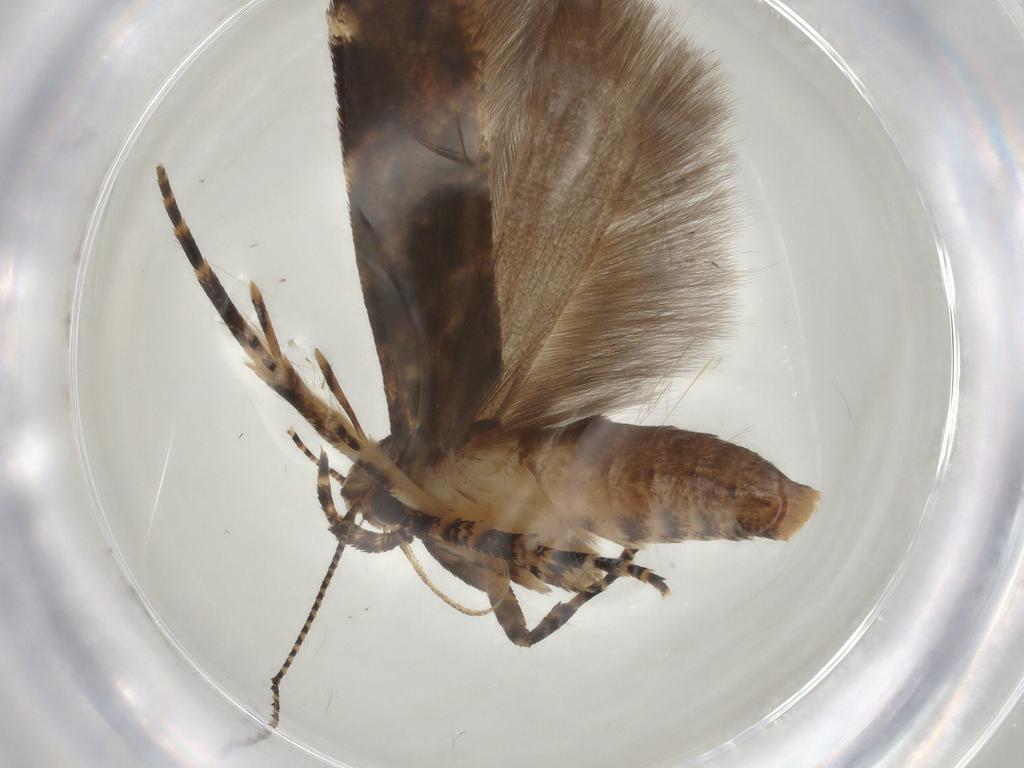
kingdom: Animalia
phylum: Arthropoda
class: Insecta
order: Lepidoptera
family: Gelechiidae
